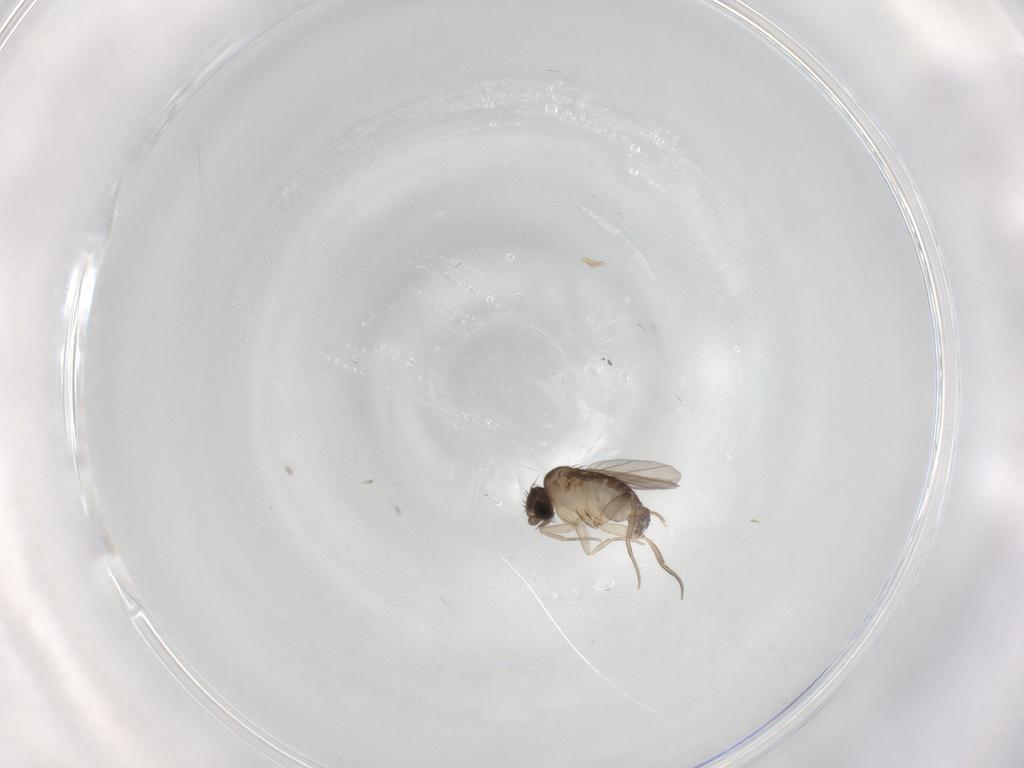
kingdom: Animalia
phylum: Arthropoda
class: Insecta
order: Diptera
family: Phoridae
